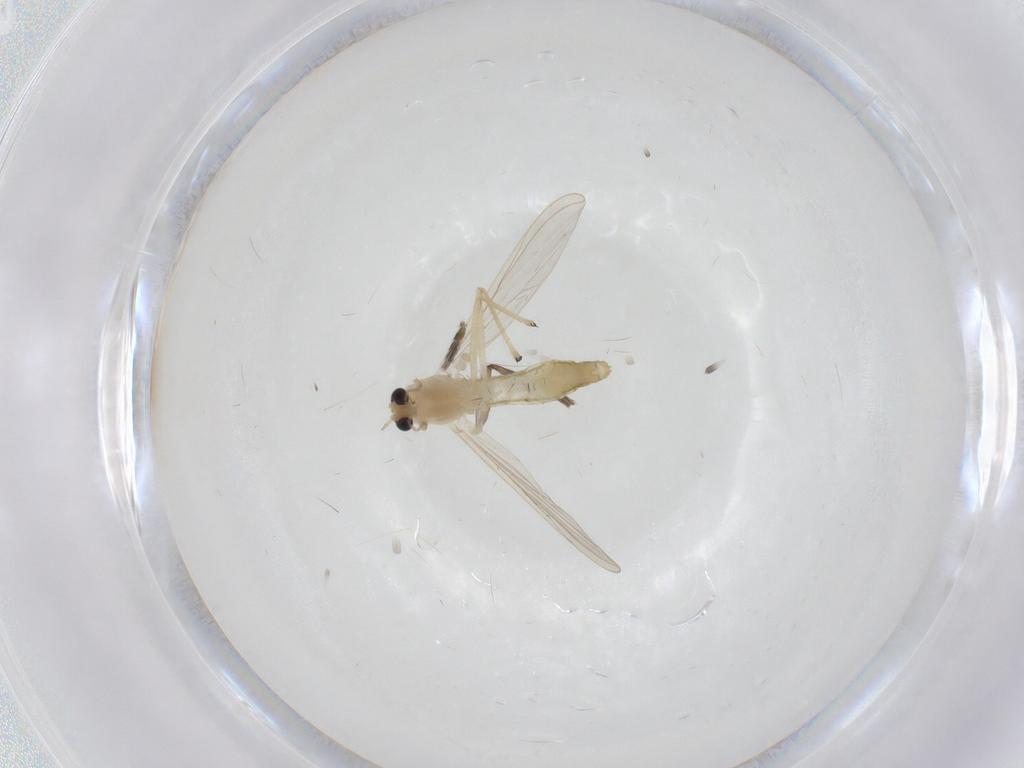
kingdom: Animalia
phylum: Arthropoda
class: Insecta
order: Diptera
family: Chironomidae
